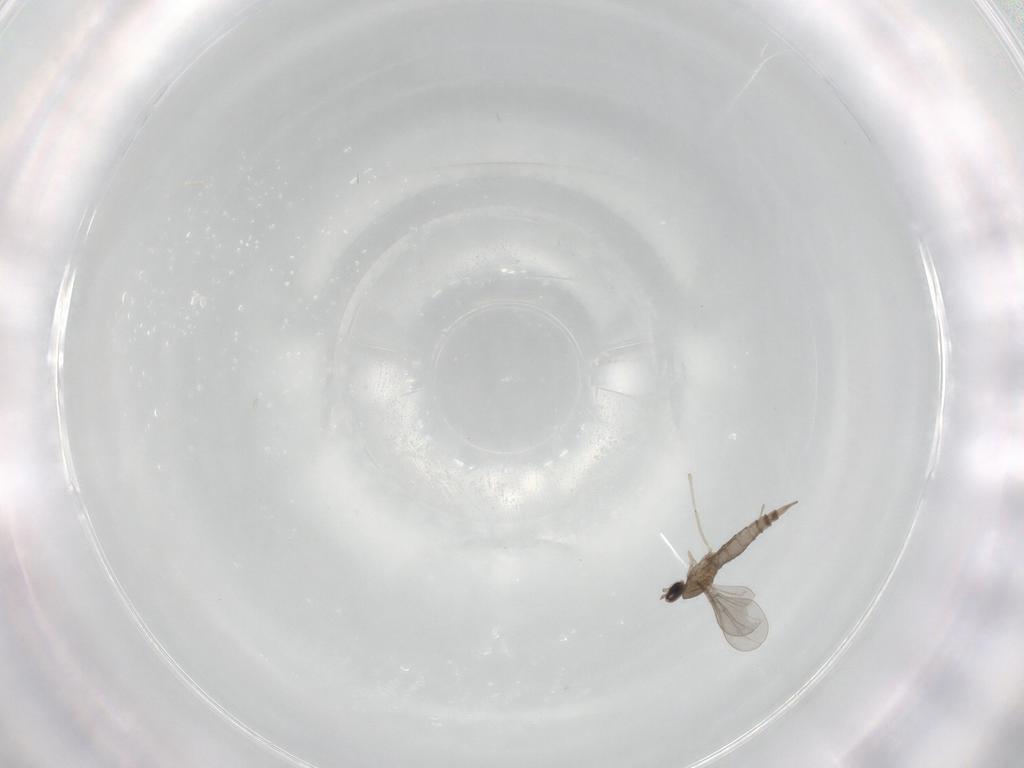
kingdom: Animalia
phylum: Arthropoda
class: Insecta
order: Diptera
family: Cecidomyiidae
